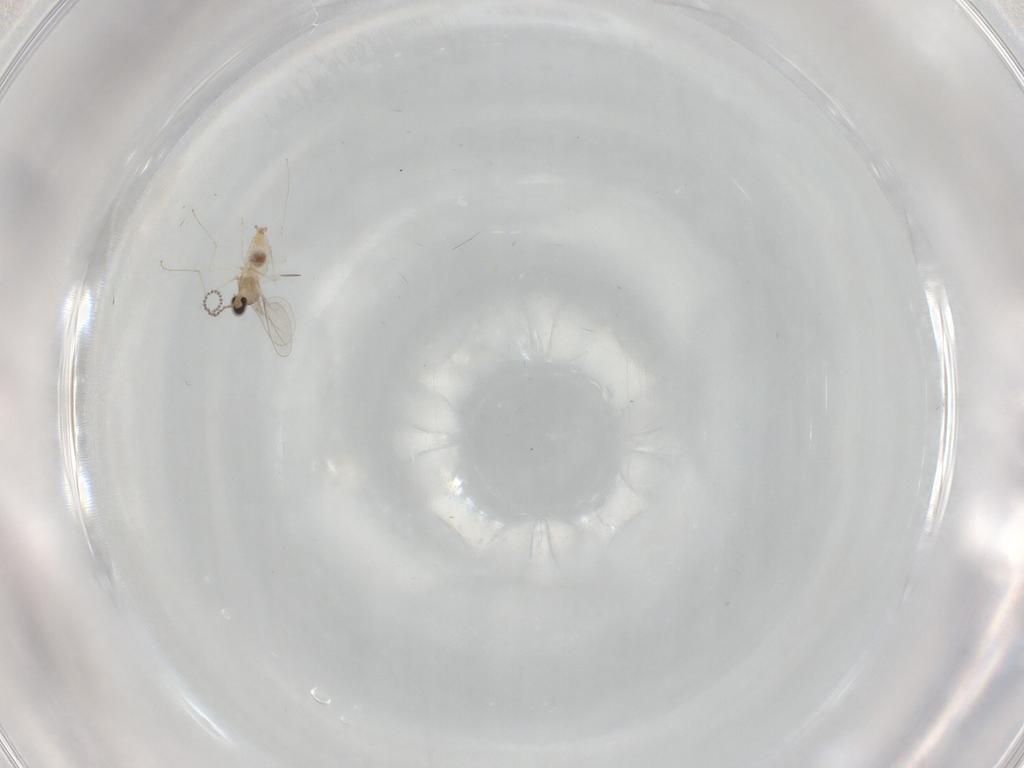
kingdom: Animalia
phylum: Arthropoda
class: Insecta
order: Diptera
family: Cecidomyiidae
